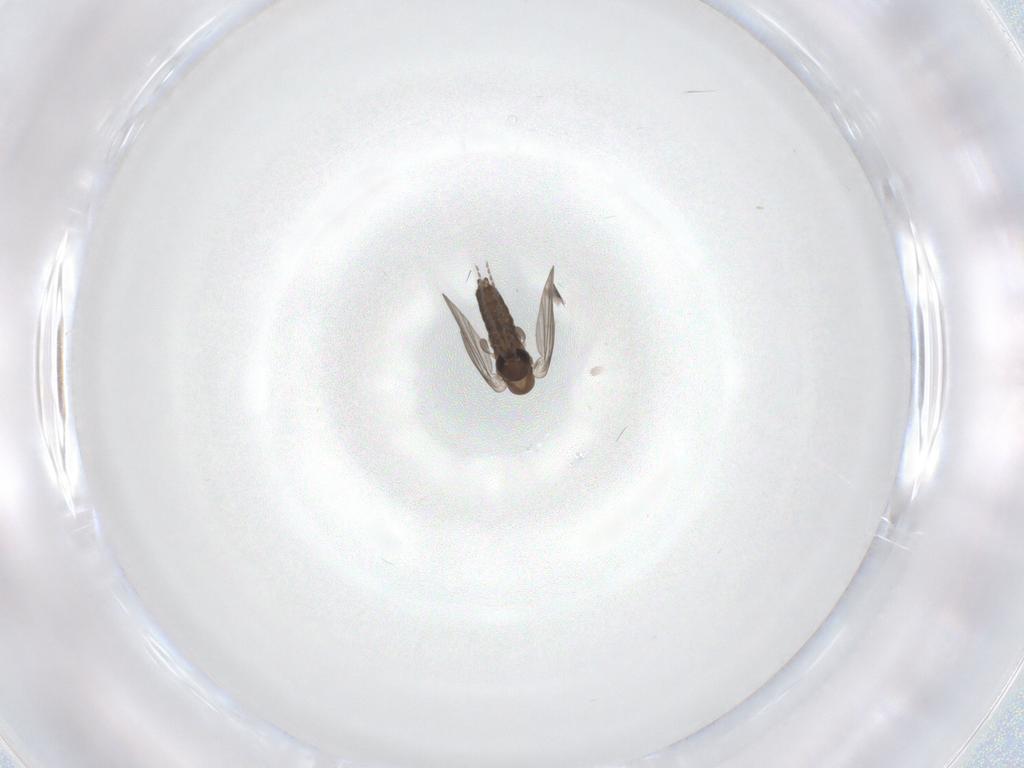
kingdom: Animalia
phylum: Arthropoda
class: Insecta
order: Diptera
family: Sciaridae
